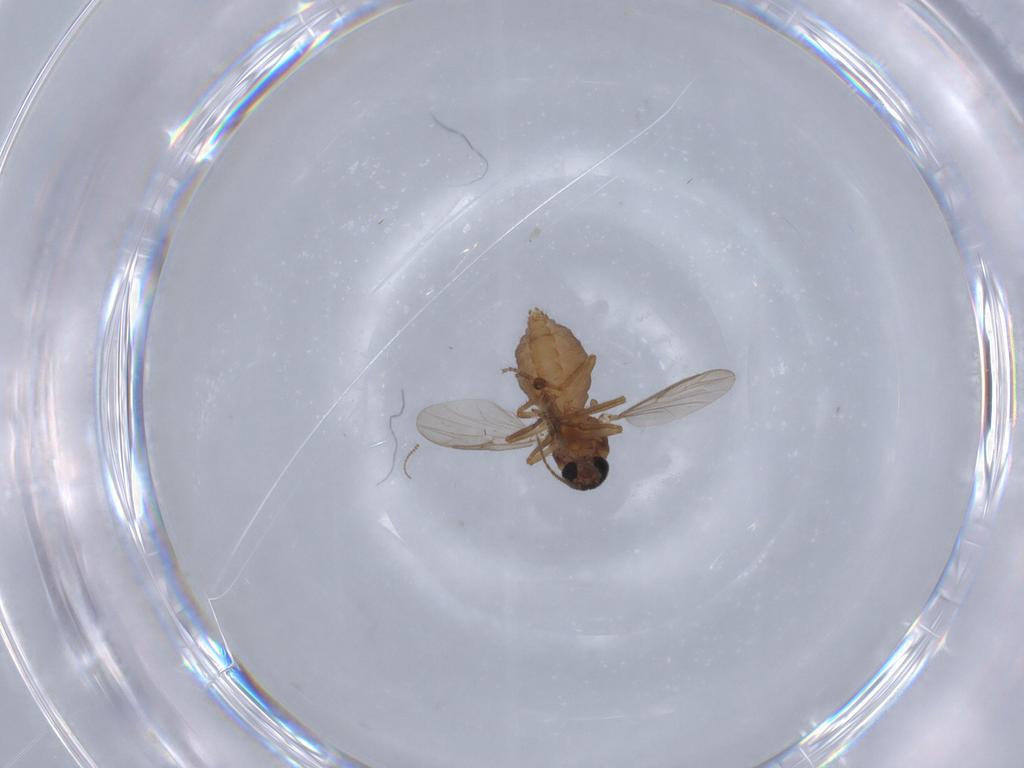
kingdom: Animalia
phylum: Arthropoda
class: Insecta
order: Diptera
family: Ceratopogonidae
